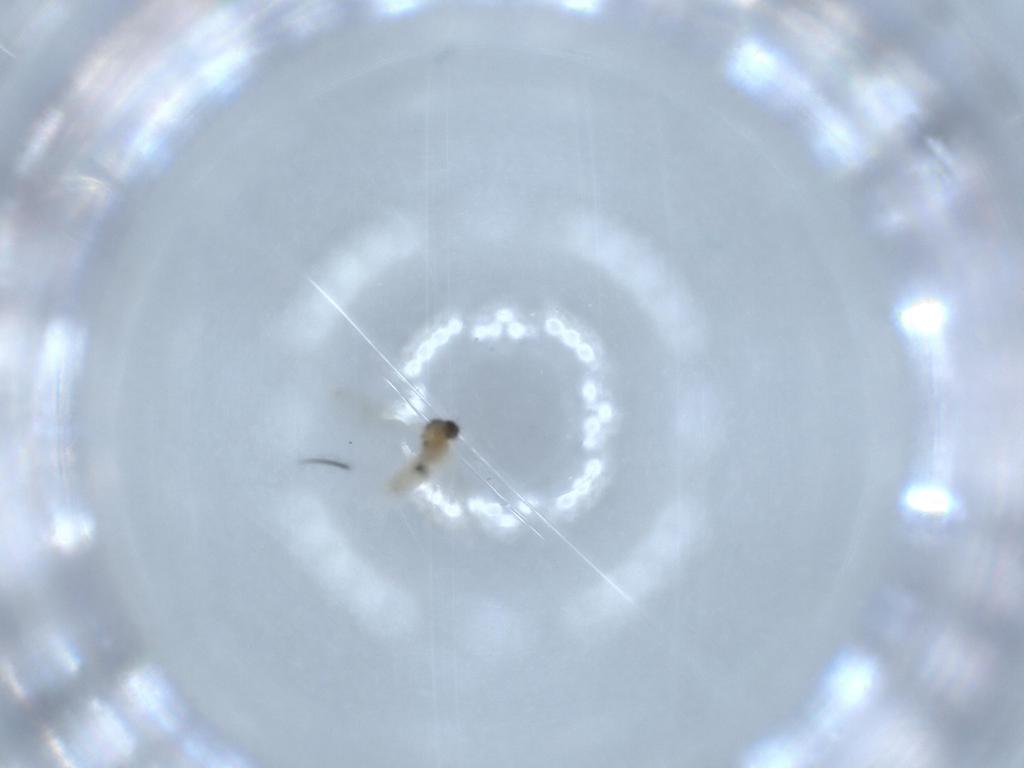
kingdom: Animalia
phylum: Arthropoda
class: Insecta
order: Diptera
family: Cecidomyiidae
